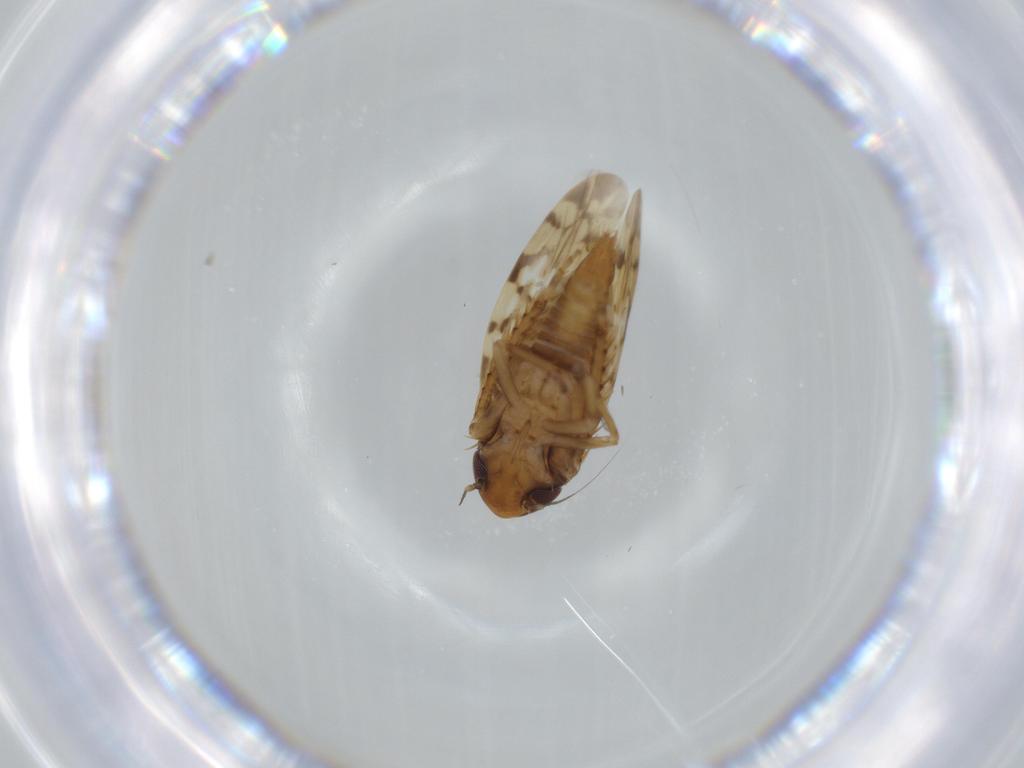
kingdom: Animalia
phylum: Arthropoda
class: Insecta
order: Hemiptera
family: Cicadellidae
